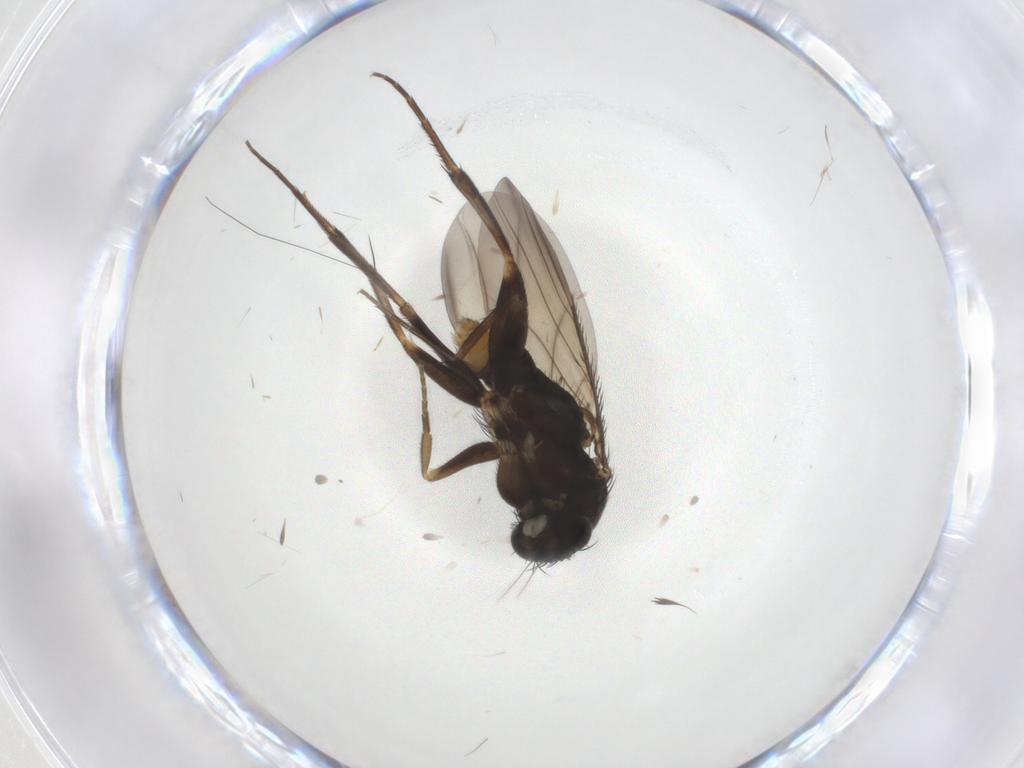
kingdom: Animalia
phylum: Arthropoda
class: Insecta
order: Diptera
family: Phoridae
